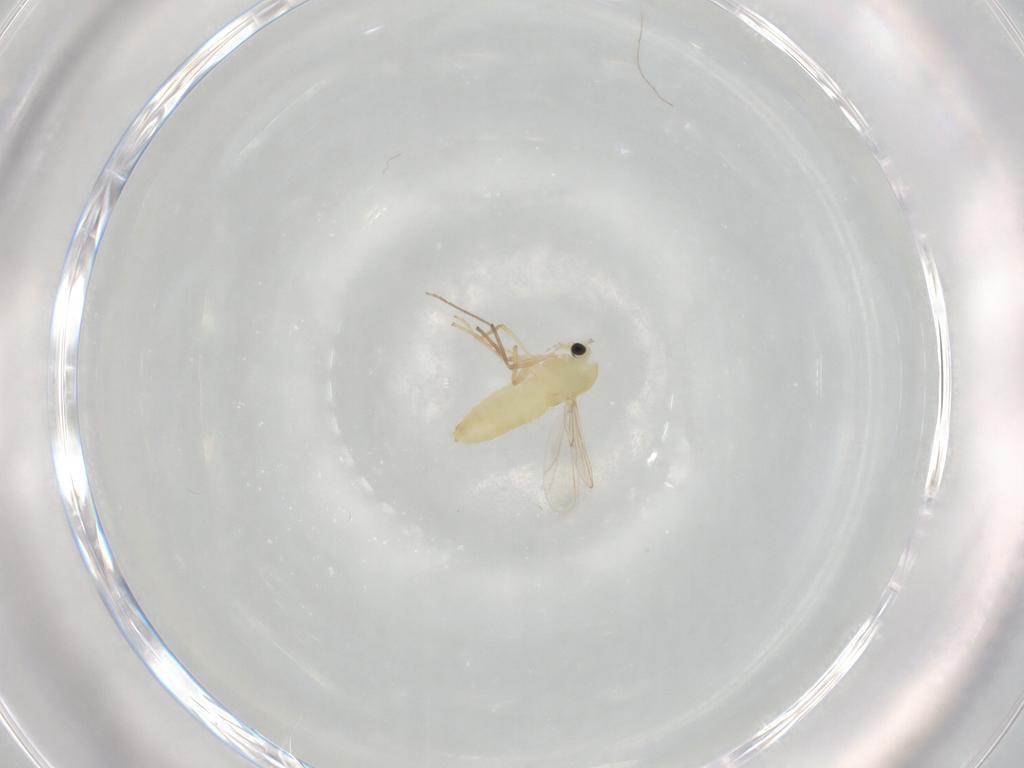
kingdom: Animalia
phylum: Arthropoda
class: Insecta
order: Diptera
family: Chironomidae
